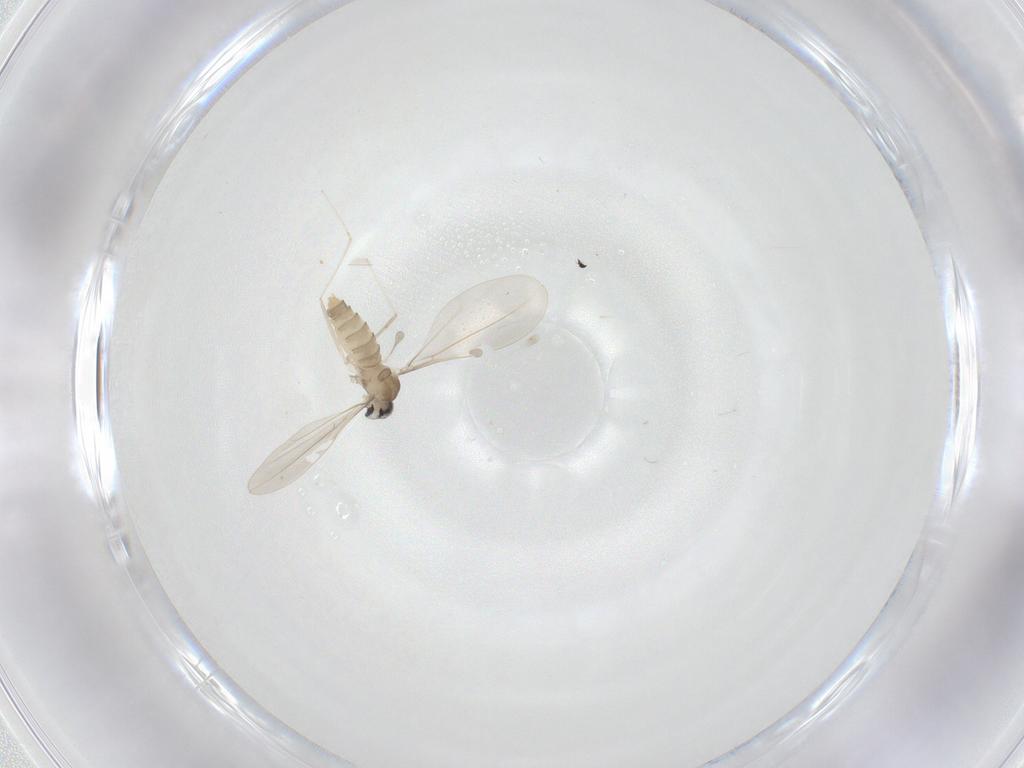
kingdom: Animalia
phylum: Arthropoda
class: Insecta
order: Diptera
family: Cecidomyiidae
